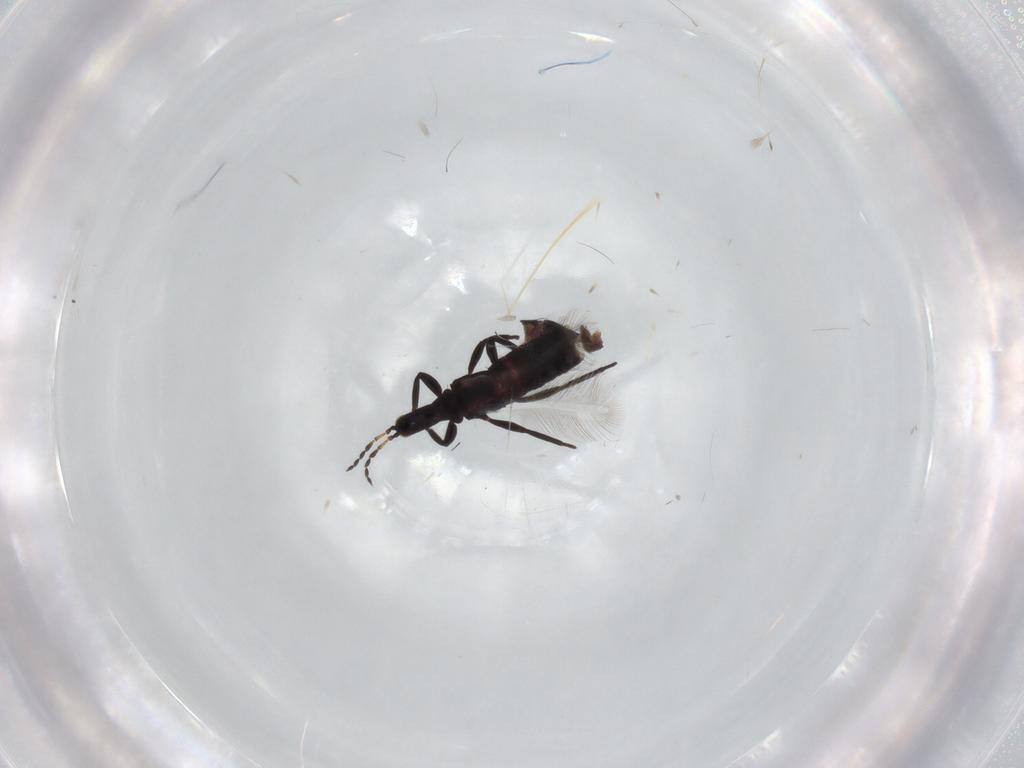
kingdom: Animalia
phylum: Arthropoda
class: Insecta
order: Thysanoptera
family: Phlaeothripidae
